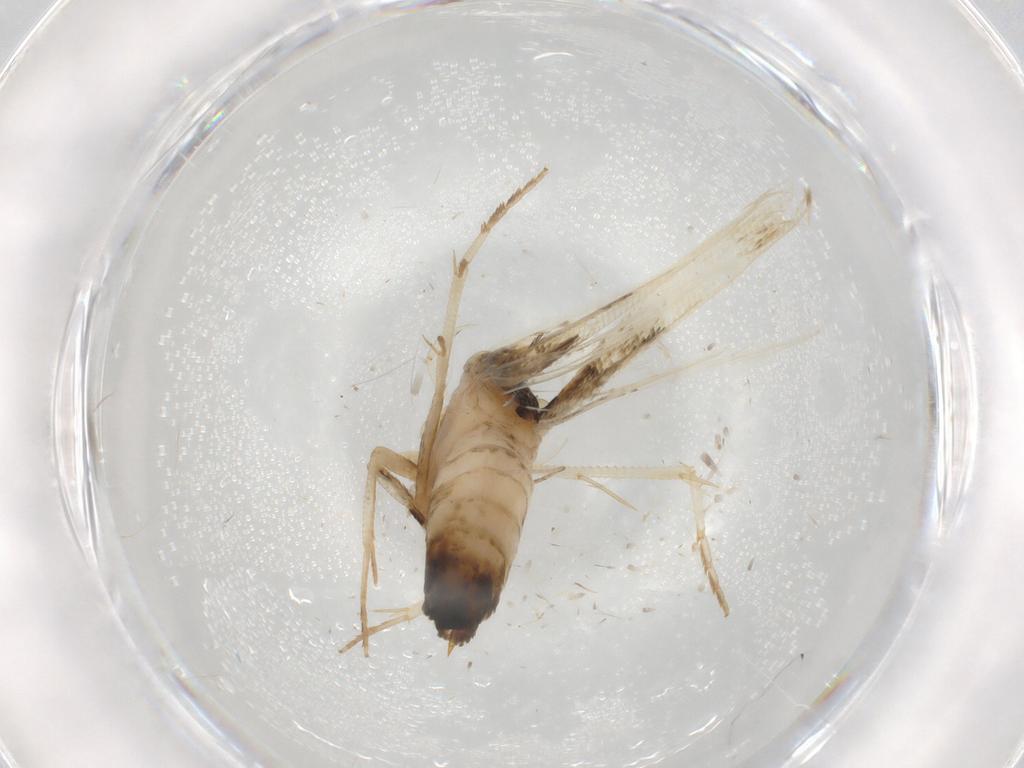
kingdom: Animalia
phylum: Arthropoda
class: Insecta
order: Lepidoptera
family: Cosmopterigidae
